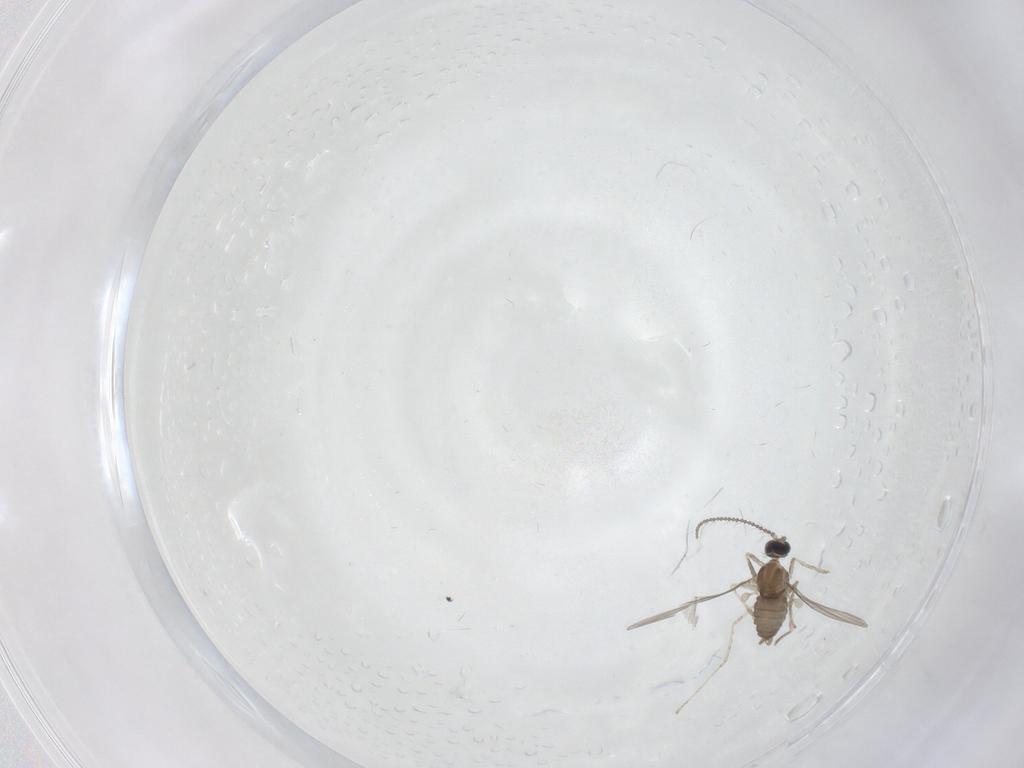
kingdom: Animalia
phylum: Arthropoda
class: Insecta
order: Diptera
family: Cecidomyiidae
